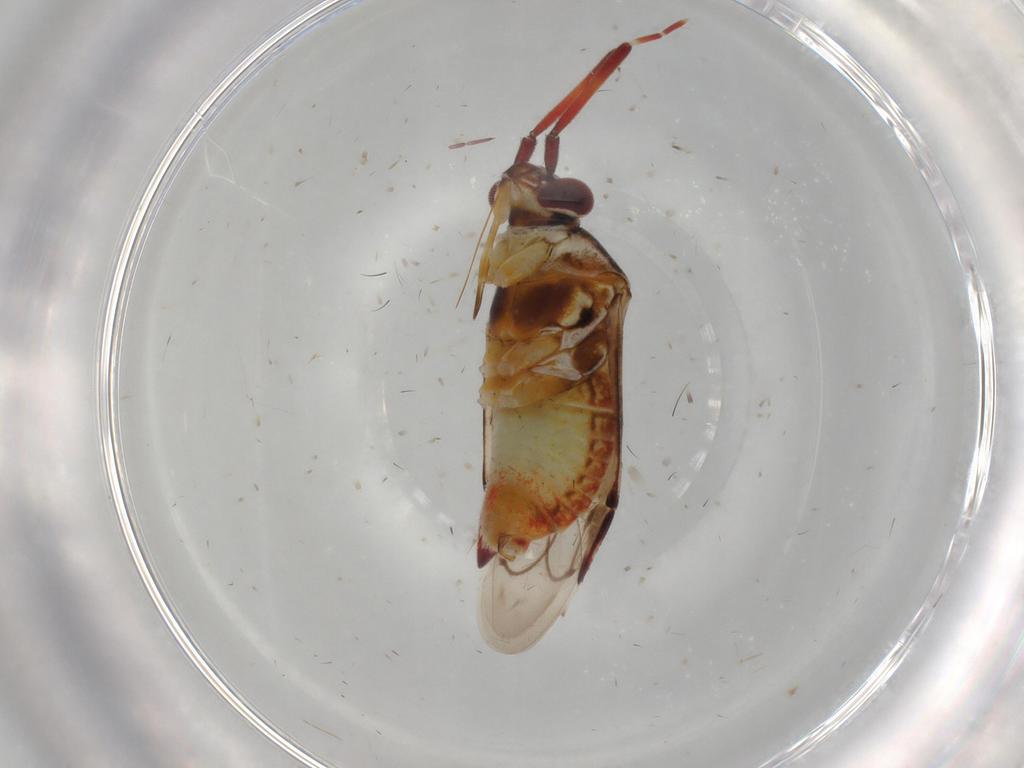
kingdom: Animalia
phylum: Arthropoda
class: Insecta
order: Hemiptera
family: Miridae
